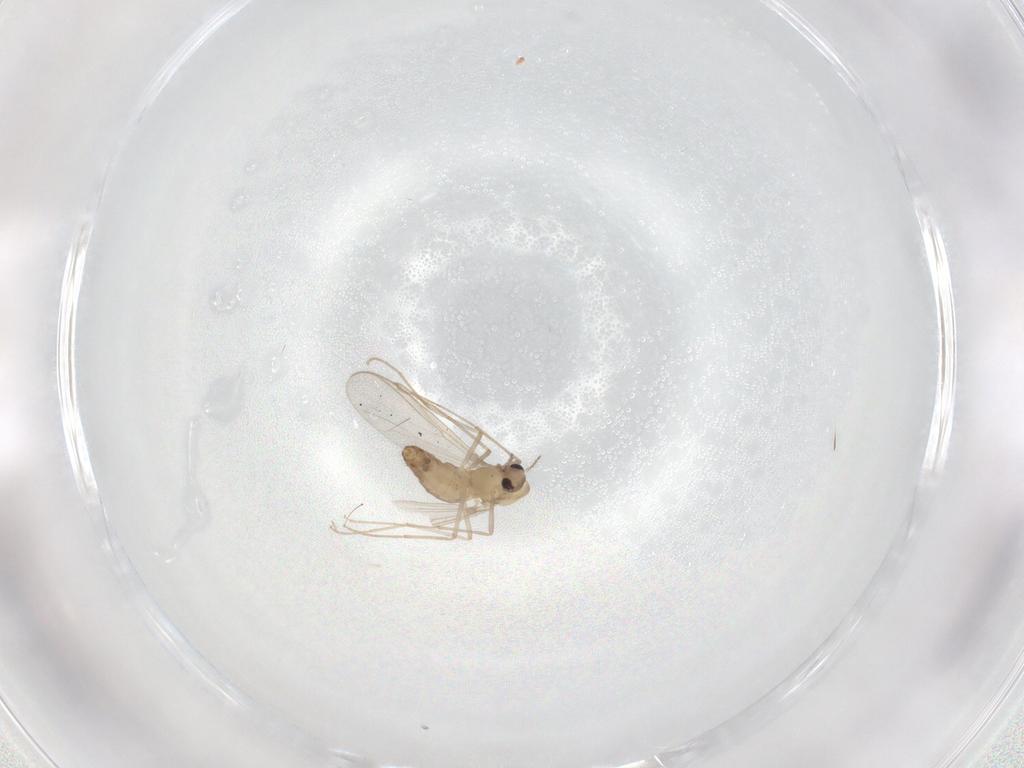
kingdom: Animalia
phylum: Arthropoda
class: Insecta
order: Diptera
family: Chironomidae
